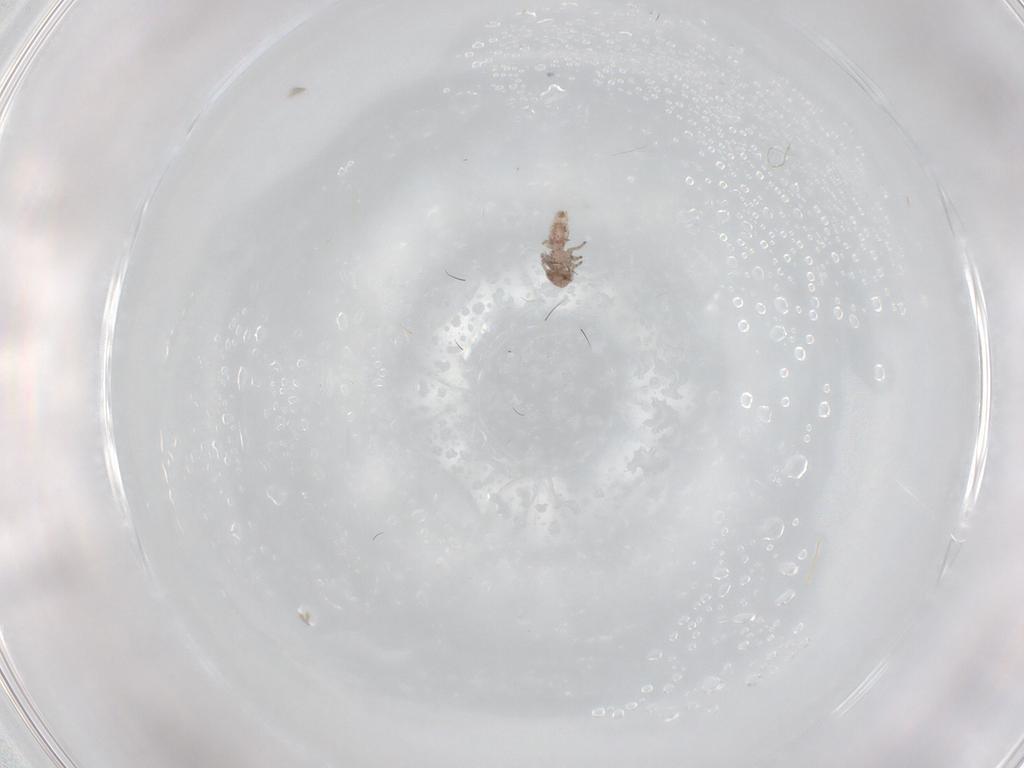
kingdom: Animalia
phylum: Arthropoda
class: Insecta
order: Psocodea
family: Caeciliusidae
